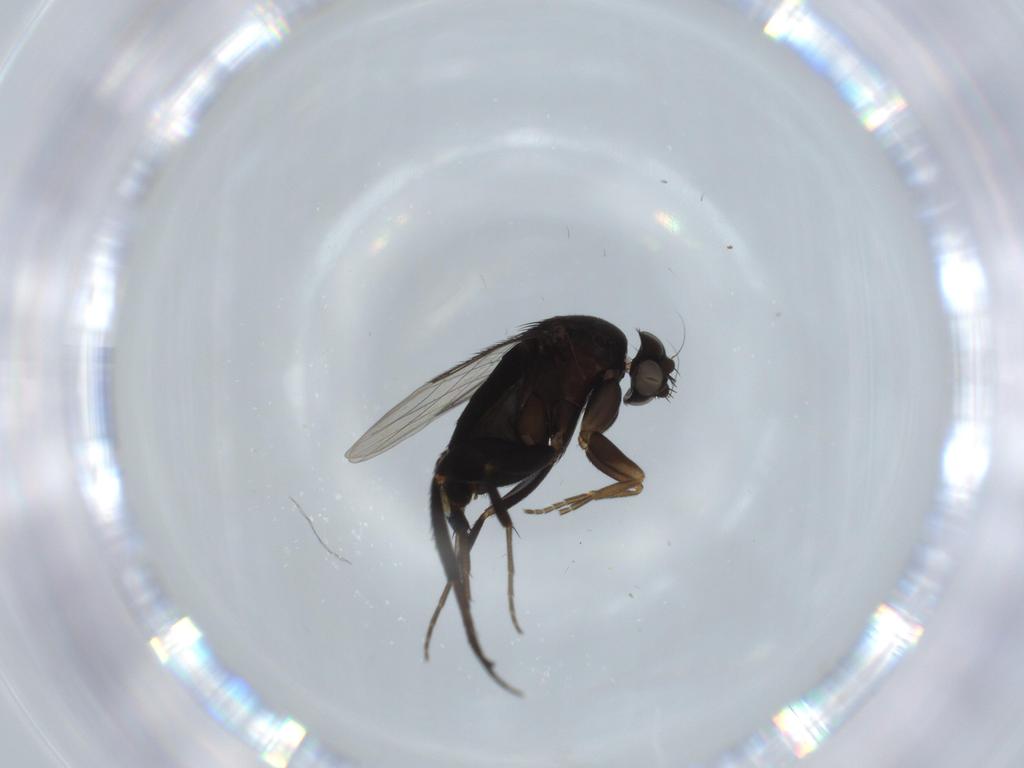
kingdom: Animalia
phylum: Arthropoda
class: Insecta
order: Diptera
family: Phoridae
